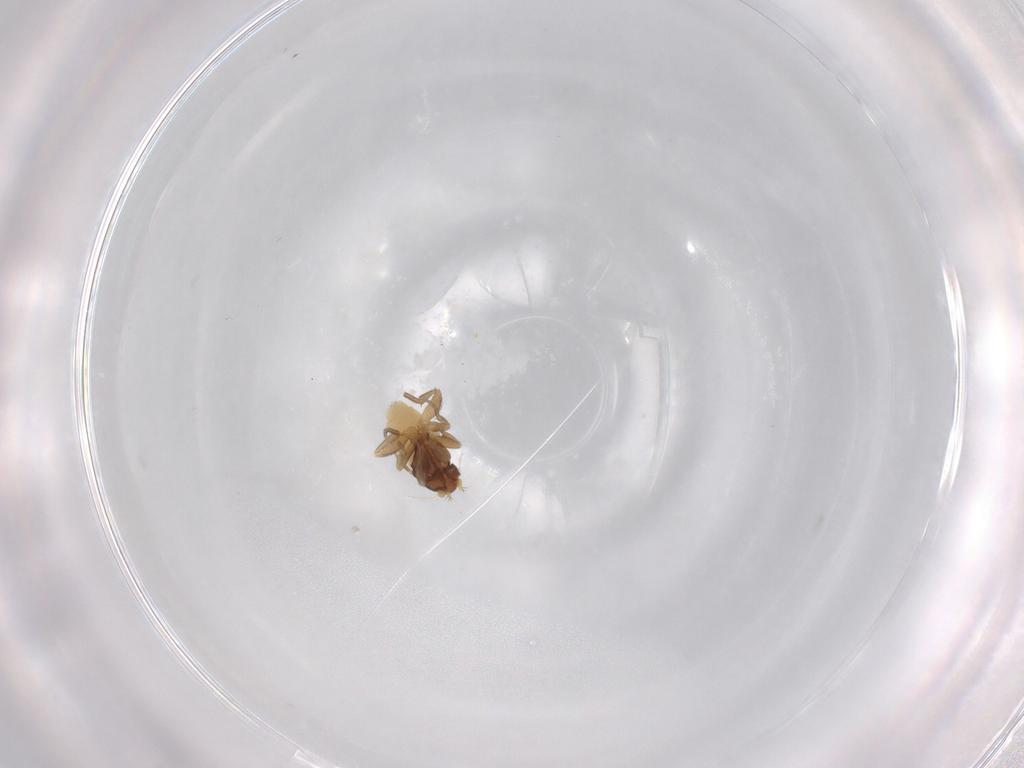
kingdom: Animalia
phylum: Arthropoda
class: Insecta
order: Diptera
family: Phoridae
